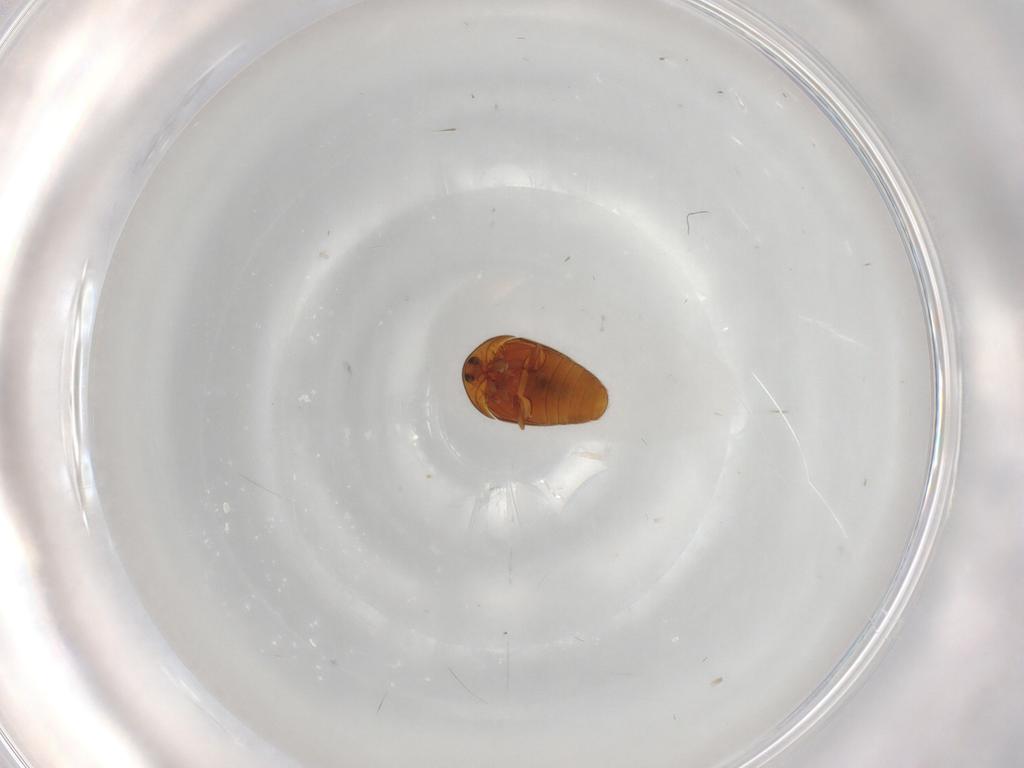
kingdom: Animalia
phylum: Arthropoda
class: Insecta
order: Coleoptera
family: Corylophidae
